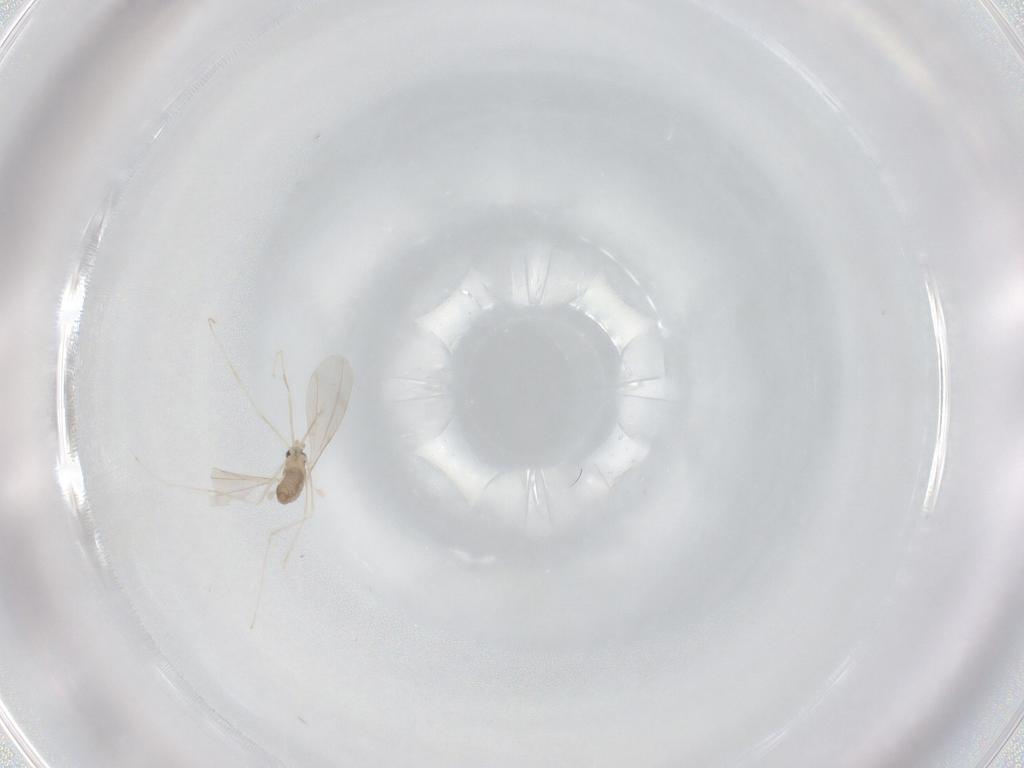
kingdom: Animalia
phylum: Arthropoda
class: Insecta
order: Diptera
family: Cecidomyiidae
